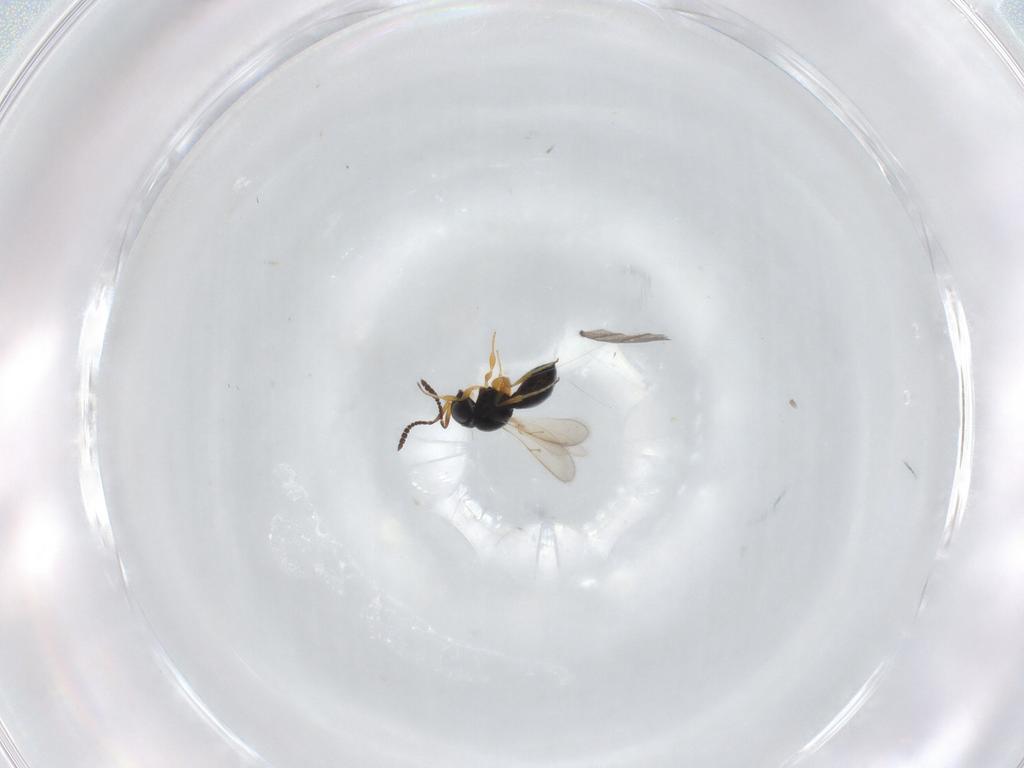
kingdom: Animalia
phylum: Arthropoda
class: Insecta
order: Hymenoptera
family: Scelionidae
